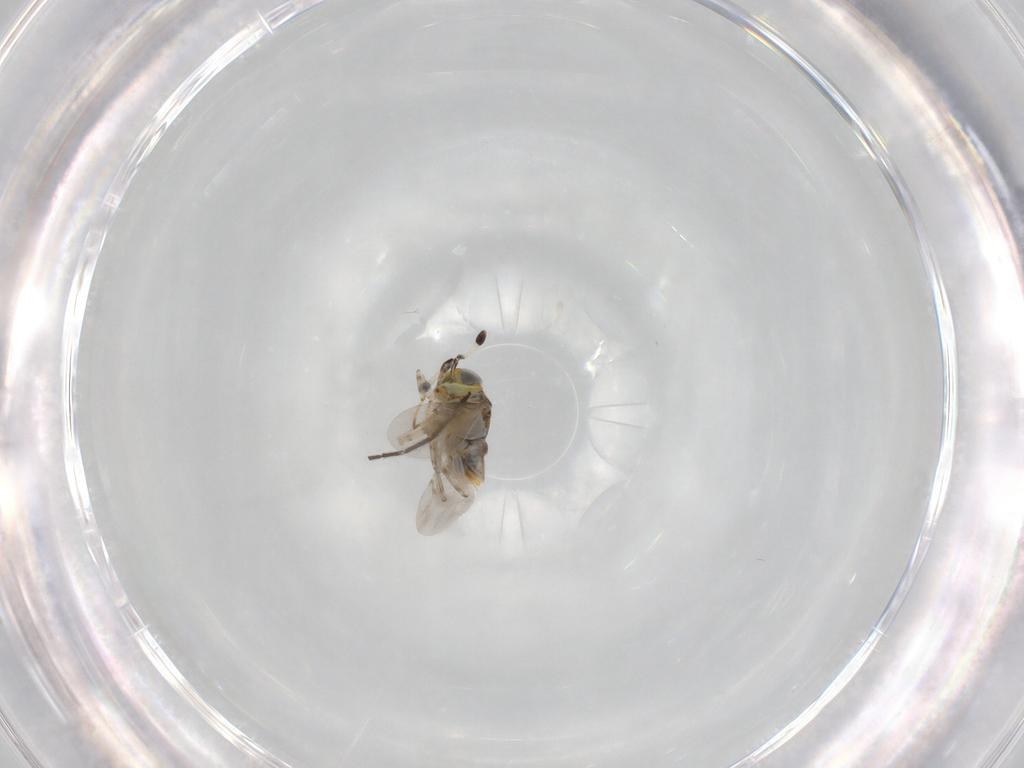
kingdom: Animalia
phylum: Arthropoda
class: Insecta
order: Hymenoptera
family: Encyrtidae
